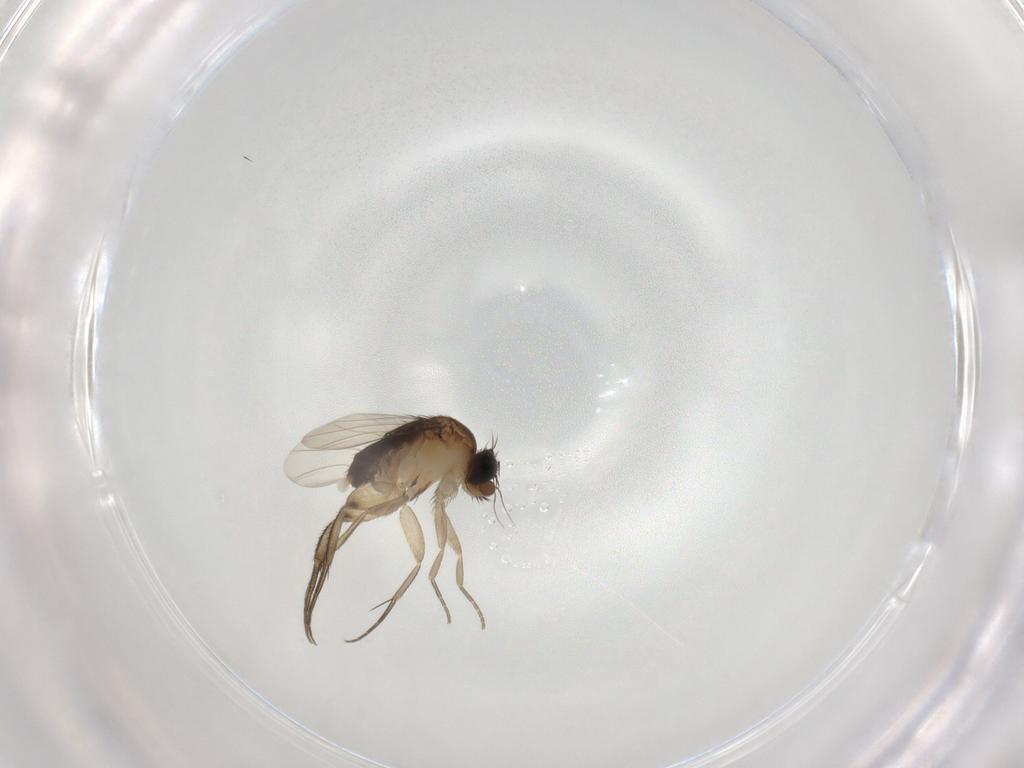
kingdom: Animalia
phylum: Arthropoda
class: Insecta
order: Diptera
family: Phoridae
